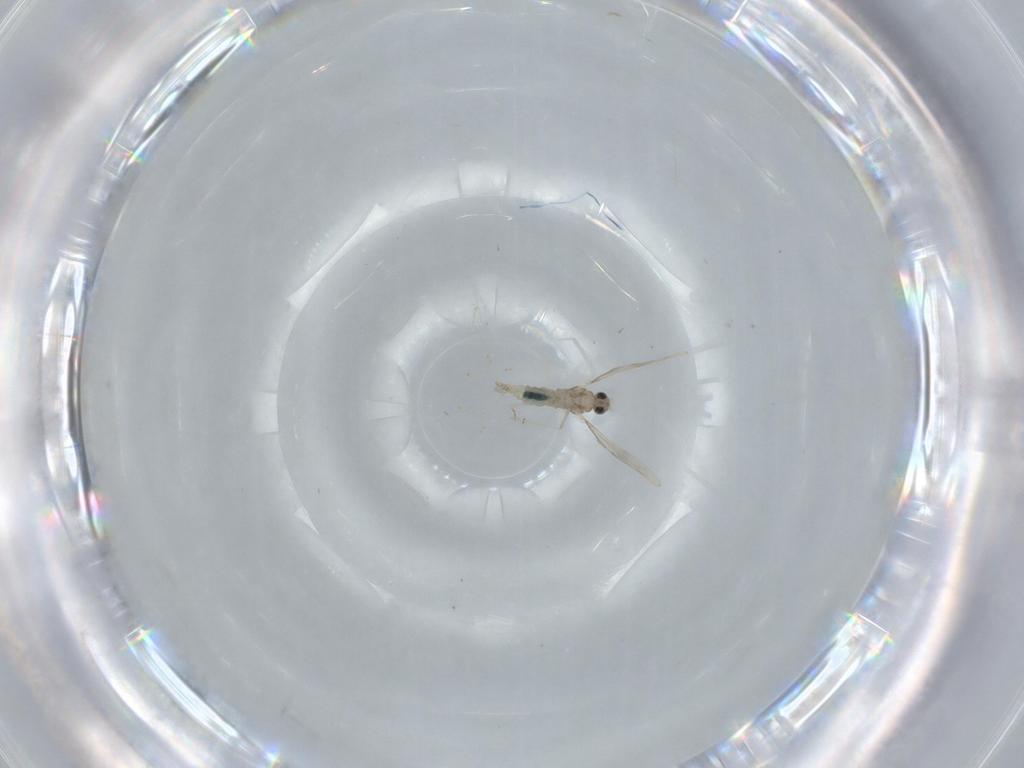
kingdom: Animalia
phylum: Arthropoda
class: Insecta
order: Diptera
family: Sciaridae
